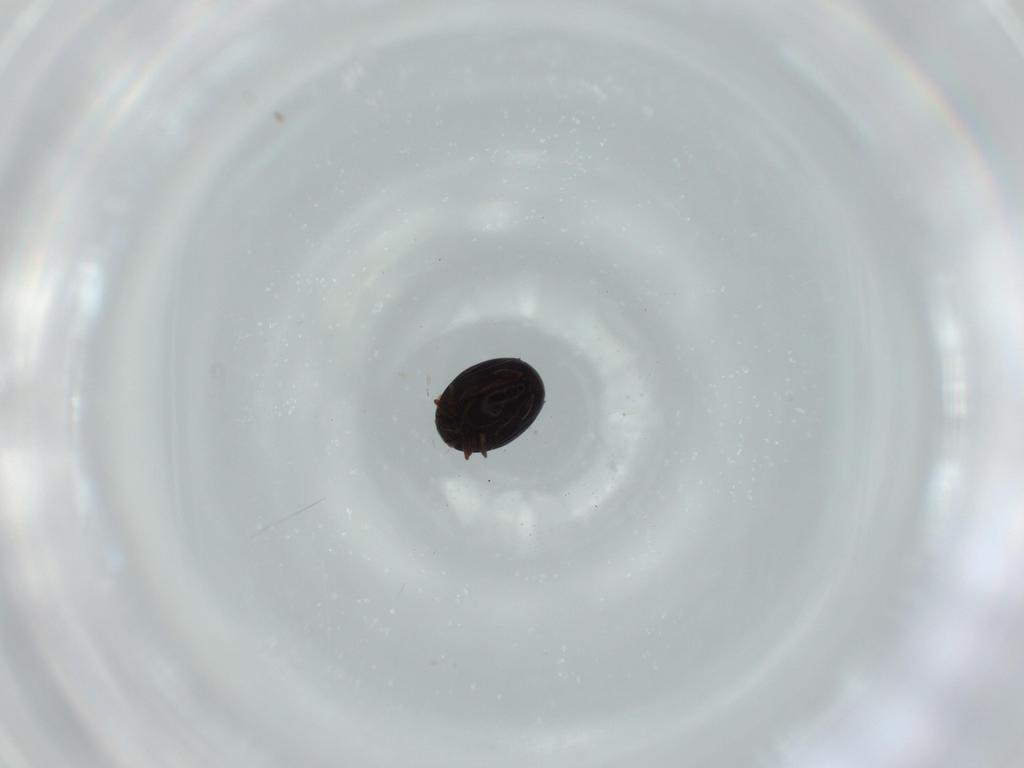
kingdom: Animalia
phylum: Arthropoda
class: Insecta
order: Coleoptera
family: Histeridae
